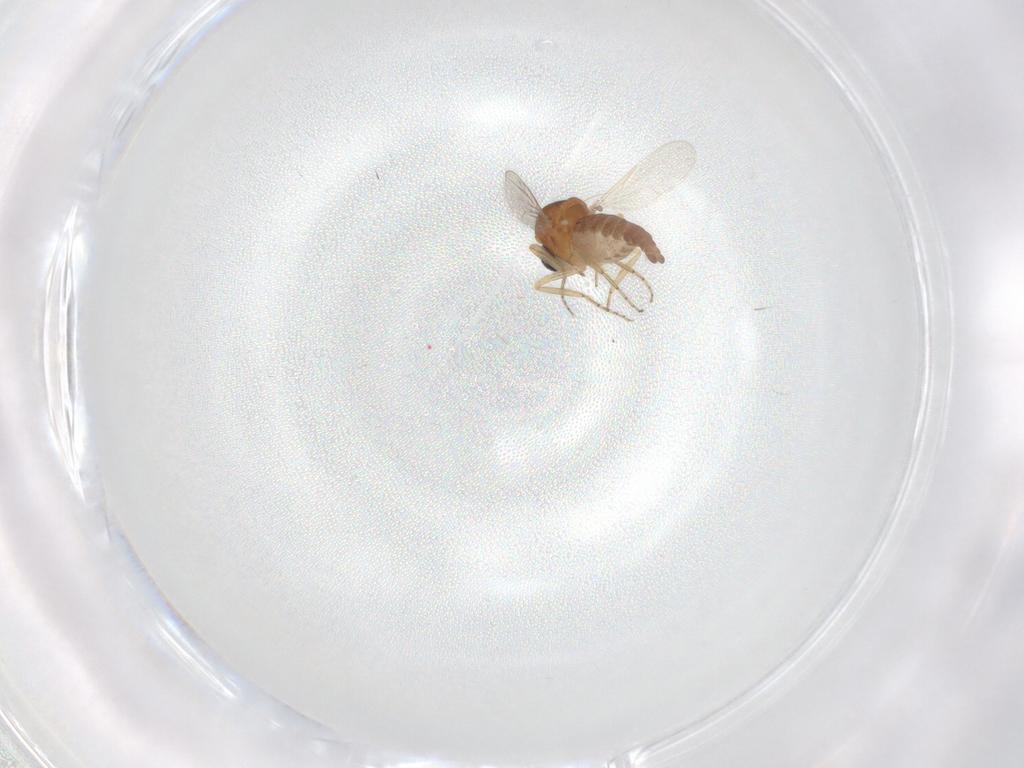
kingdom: Animalia
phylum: Arthropoda
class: Insecta
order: Diptera
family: Ceratopogonidae
